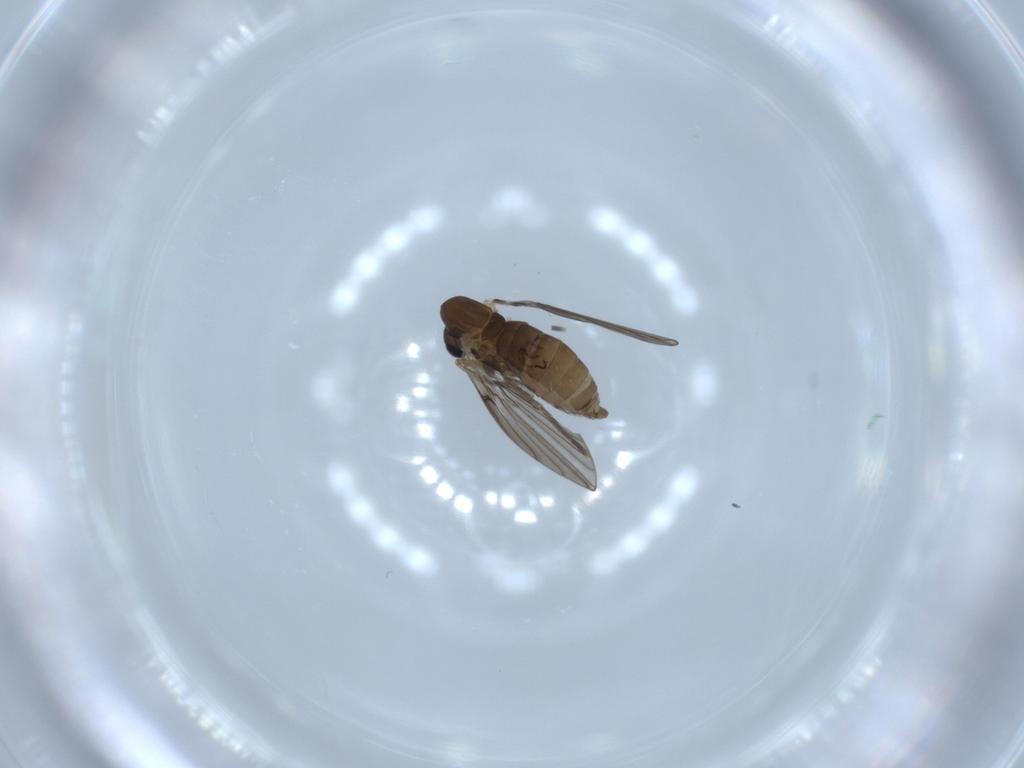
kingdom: Animalia
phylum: Arthropoda
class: Insecta
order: Diptera
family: Psychodidae
